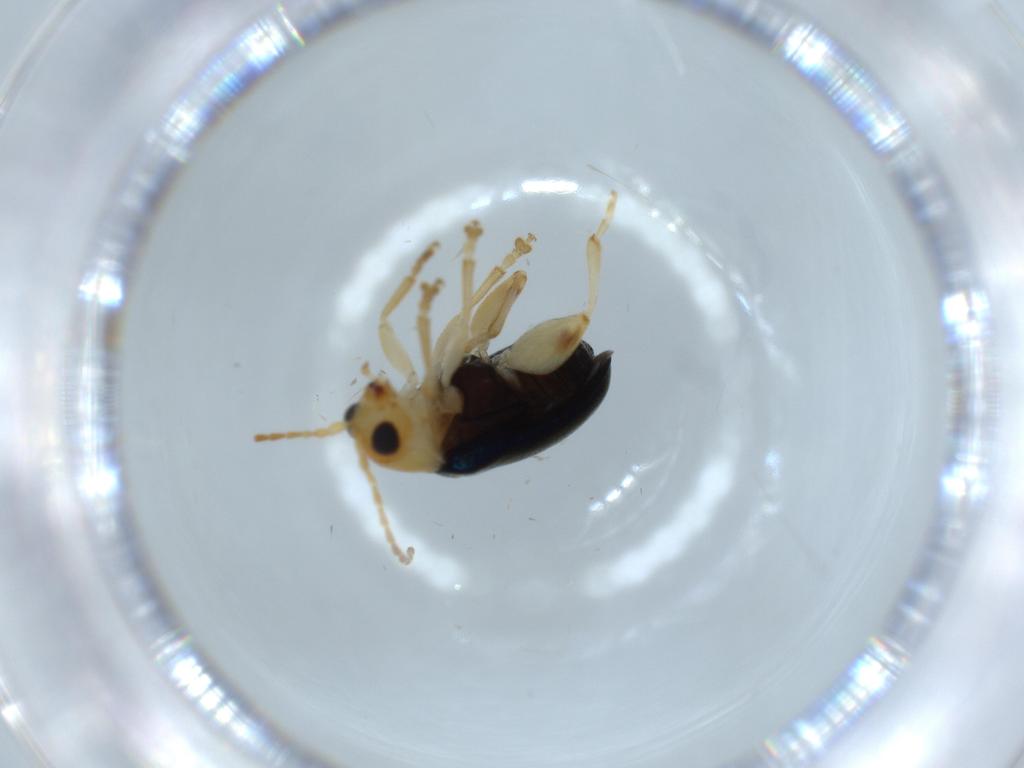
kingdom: Animalia
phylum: Arthropoda
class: Insecta
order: Coleoptera
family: Chrysomelidae
